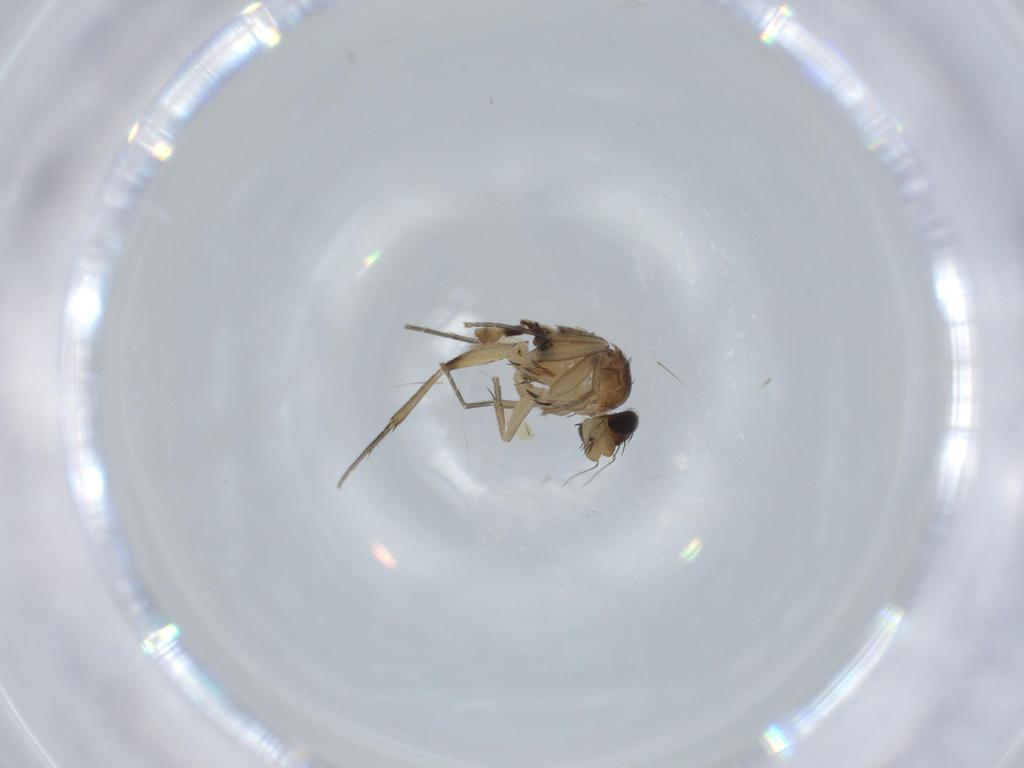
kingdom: Animalia
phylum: Arthropoda
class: Insecta
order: Diptera
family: Phoridae
